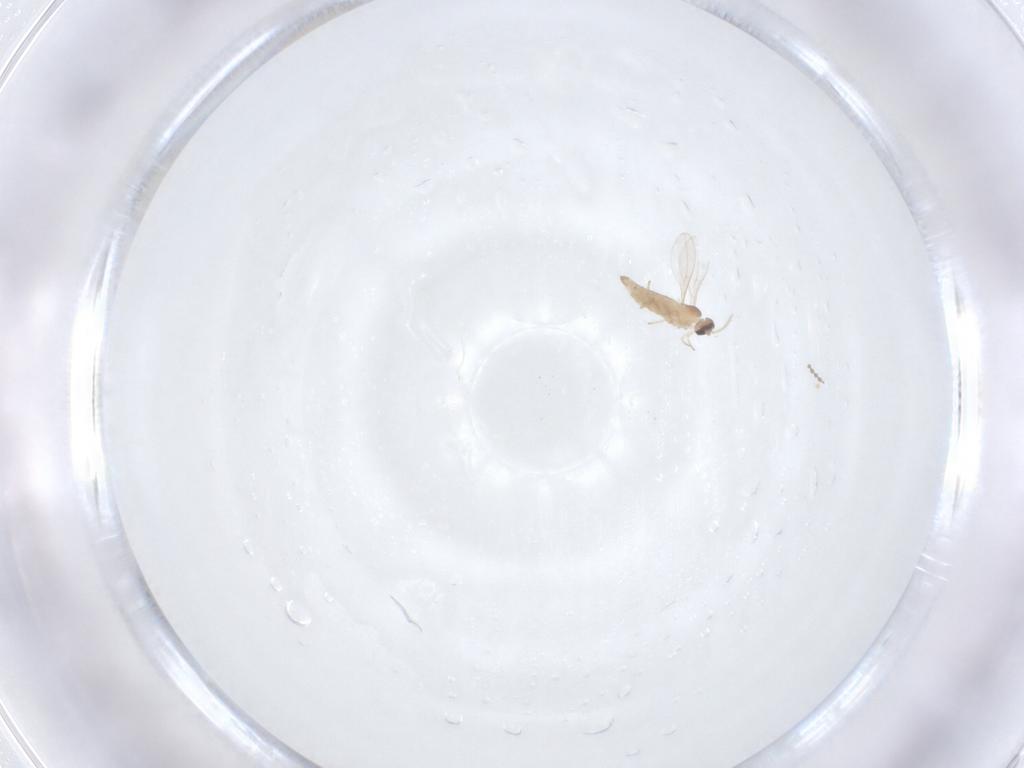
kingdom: Animalia
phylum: Arthropoda
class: Insecta
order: Diptera
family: Cecidomyiidae
